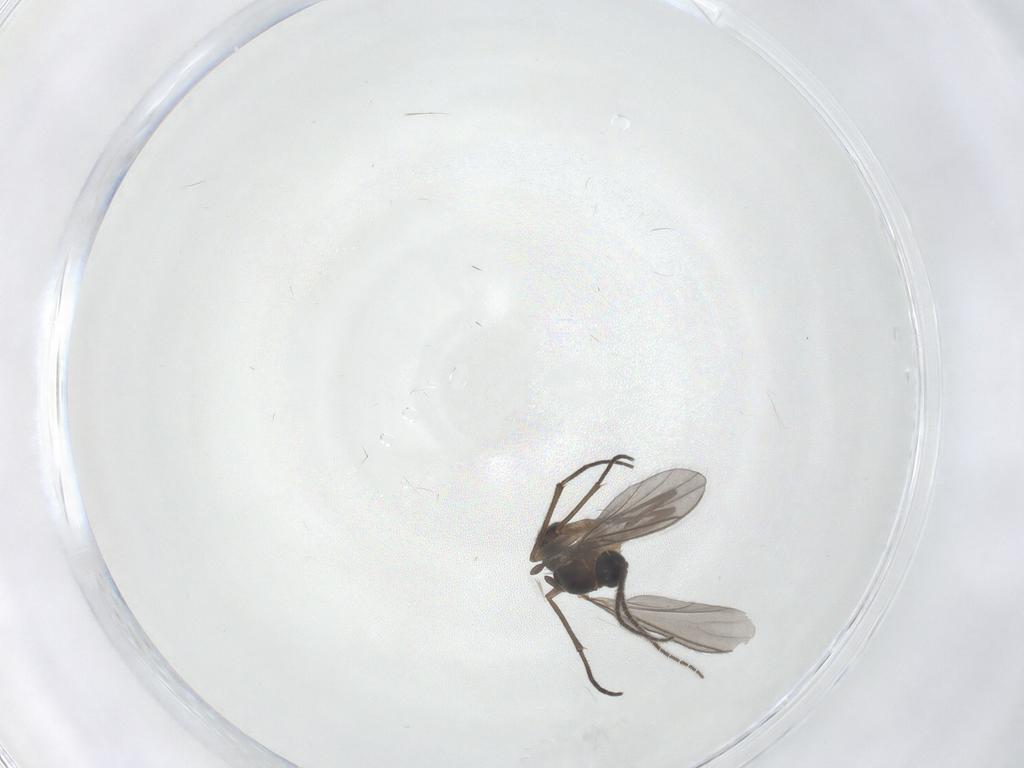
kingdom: Animalia
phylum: Arthropoda
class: Insecta
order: Diptera
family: Sciaridae
